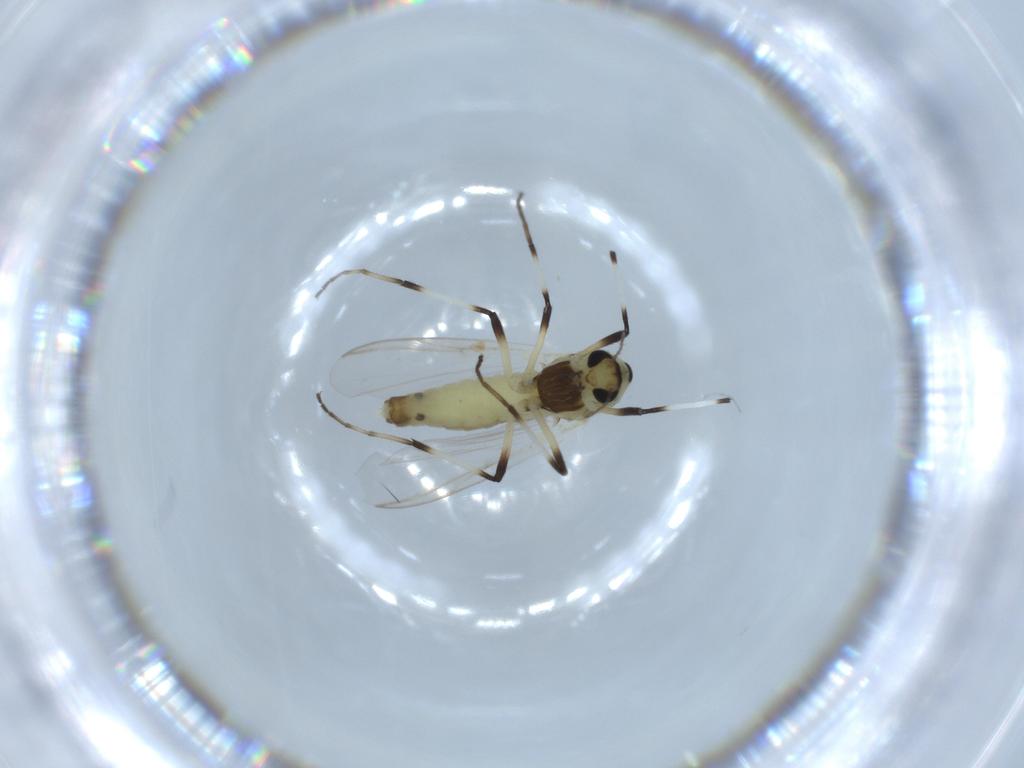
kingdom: Animalia
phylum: Arthropoda
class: Insecta
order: Diptera
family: Chironomidae
